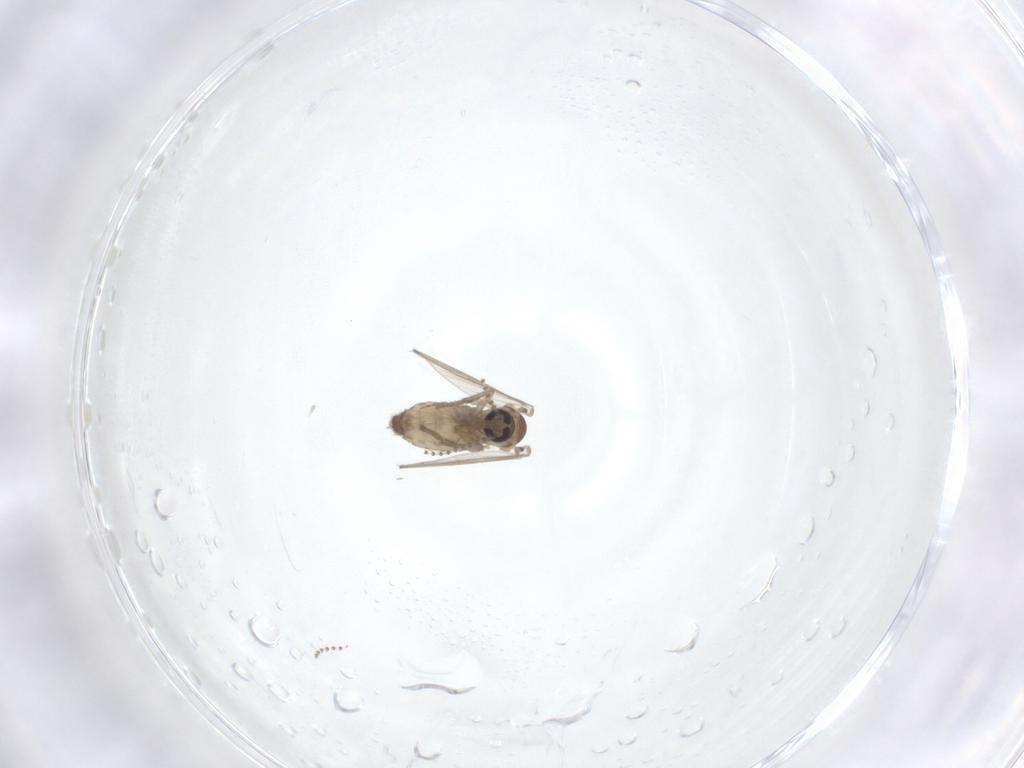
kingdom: Animalia
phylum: Arthropoda
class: Insecta
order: Diptera
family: Psychodidae
